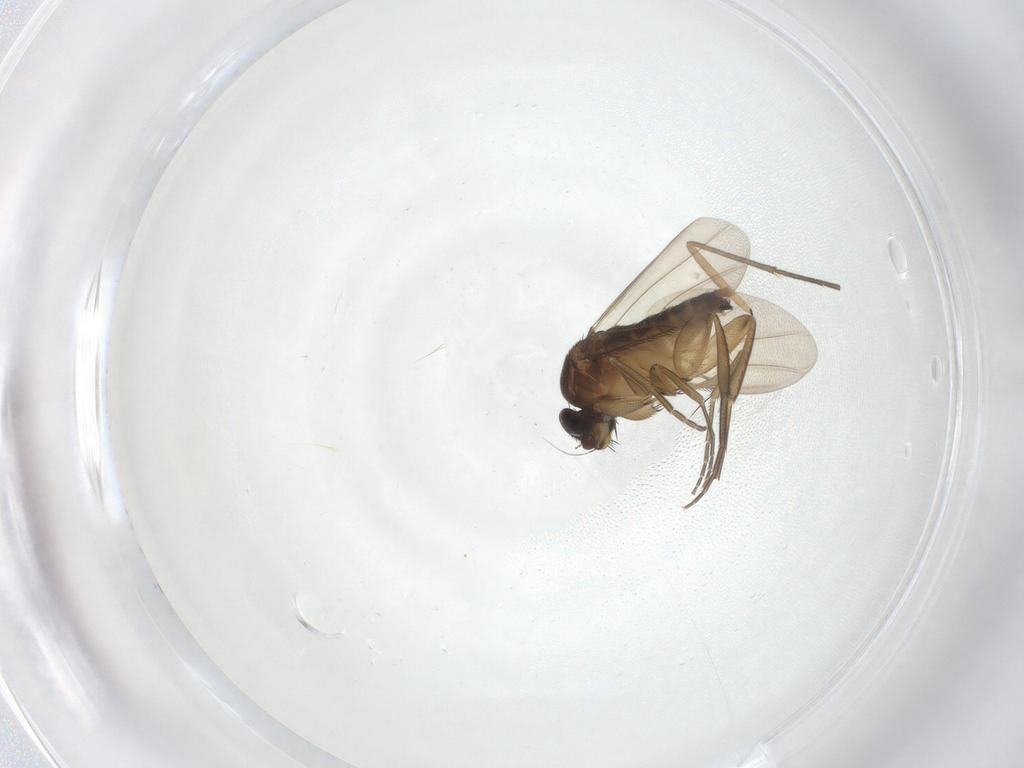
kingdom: Animalia
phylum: Arthropoda
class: Insecta
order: Diptera
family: Phoridae
